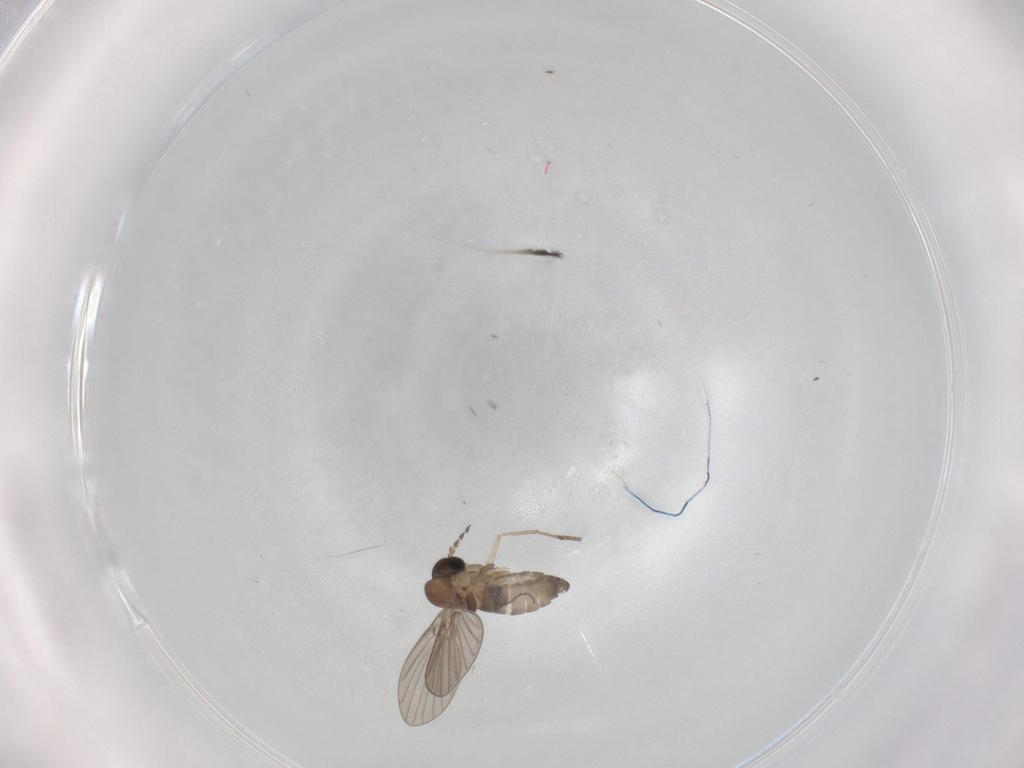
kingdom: Animalia
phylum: Arthropoda
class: Insecta
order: Diptera
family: Psychodidae
